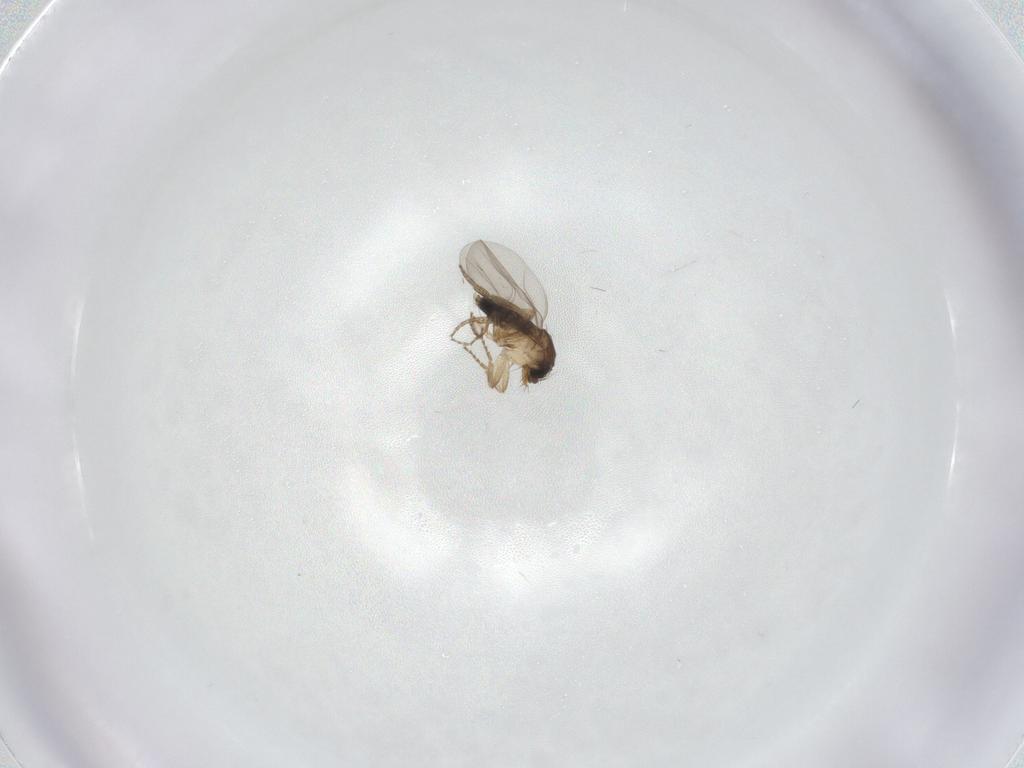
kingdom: Animalia
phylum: Arthropoda
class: Insecta
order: Diptera
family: Phoridae
